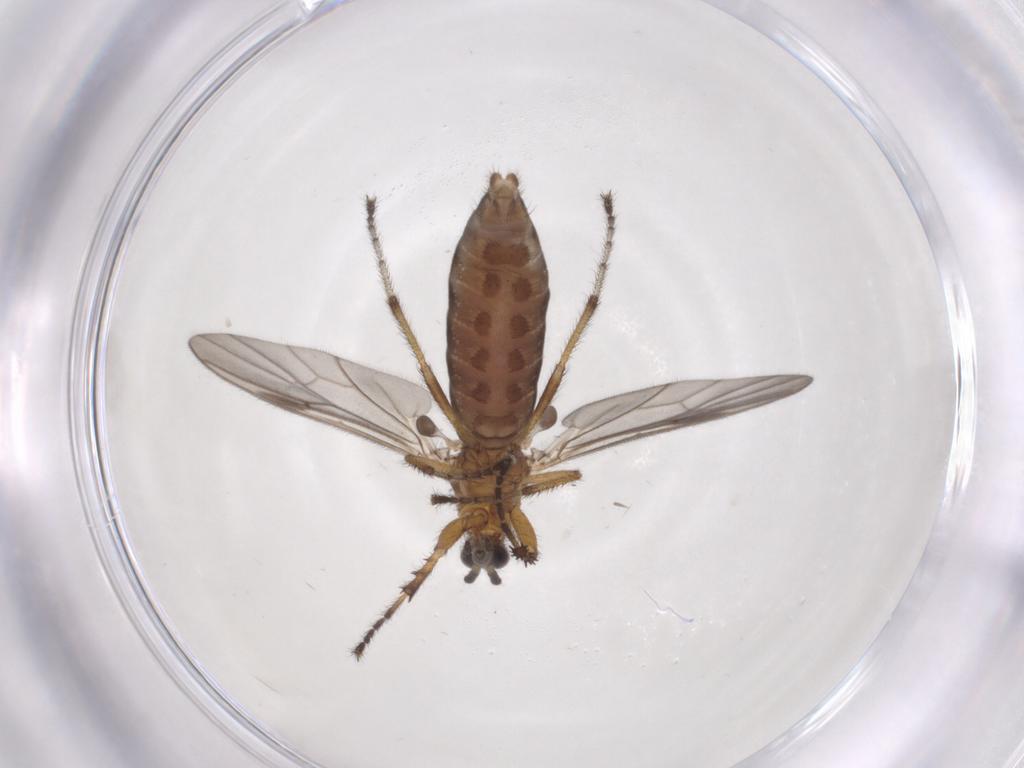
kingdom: Animalia
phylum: Arthropoda
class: Insecta
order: Diptera
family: Bibionidae
